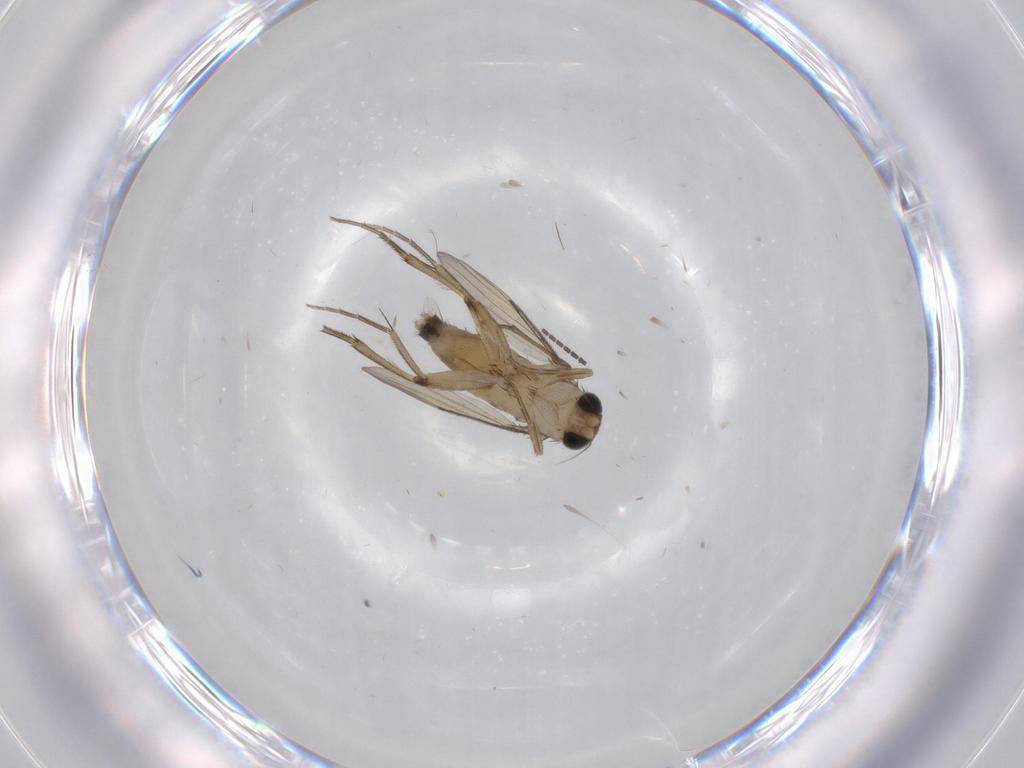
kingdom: Animalia
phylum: Arthropoda
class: Insecta
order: Diptera
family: Phoridae
